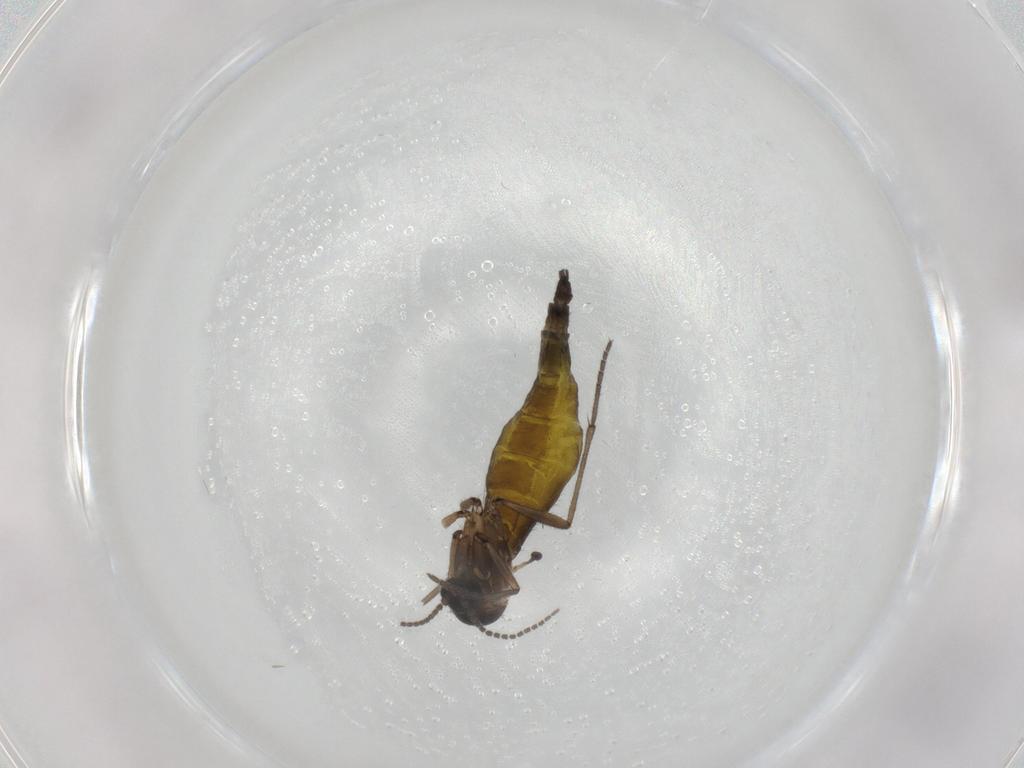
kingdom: Animalia
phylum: Arthropoda
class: Insecta
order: Diptera
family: Sciaridae
